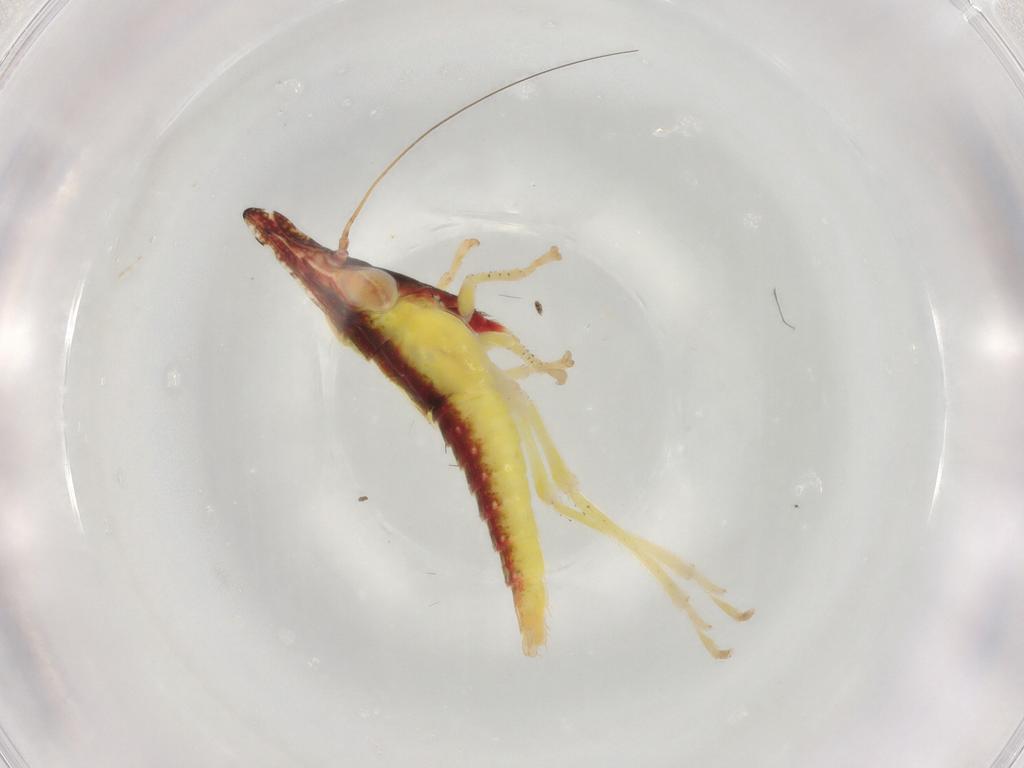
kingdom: Animalia
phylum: Arthropoda
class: Insecta
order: Hemiptera
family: Cicadellidae
